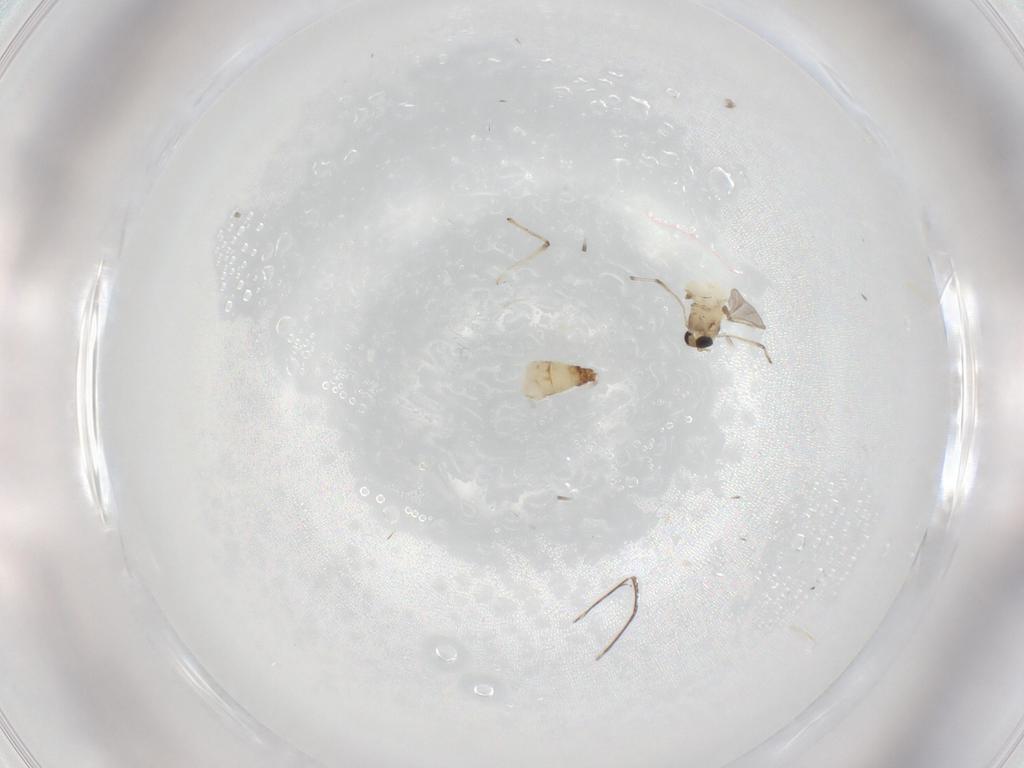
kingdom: Animalia
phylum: Arthropoda
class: Insecta
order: Diptera
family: Chironomidae
